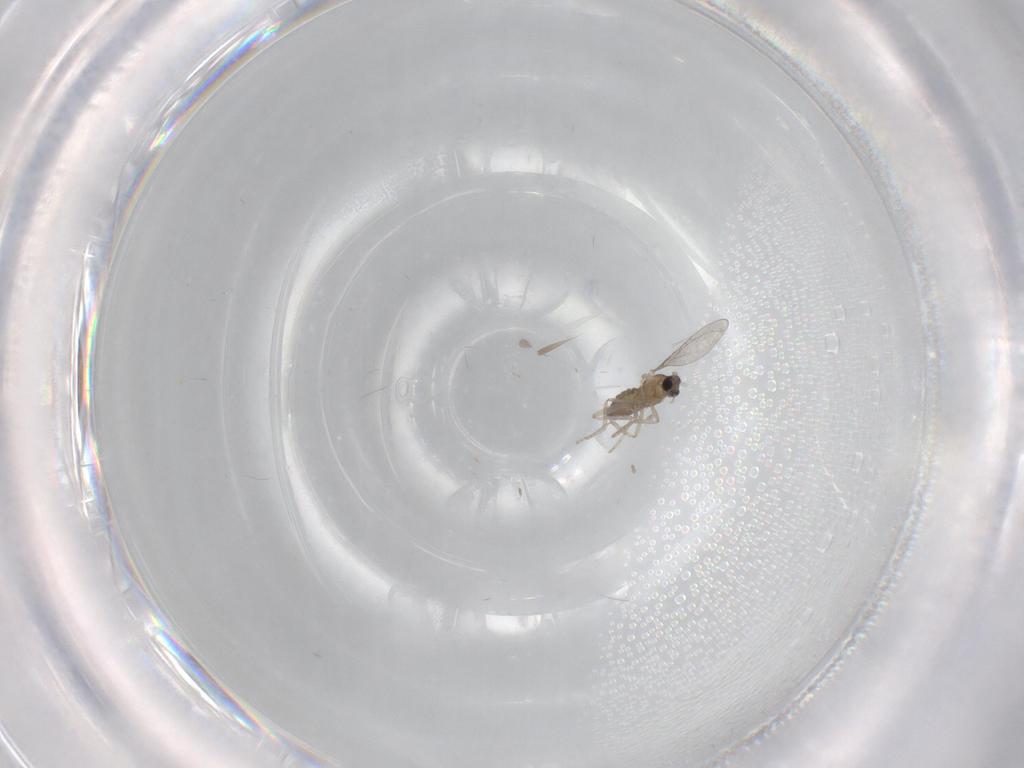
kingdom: Animalia
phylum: Arthropoda
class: Insecta
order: Diptera
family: Cecidomyiidae
